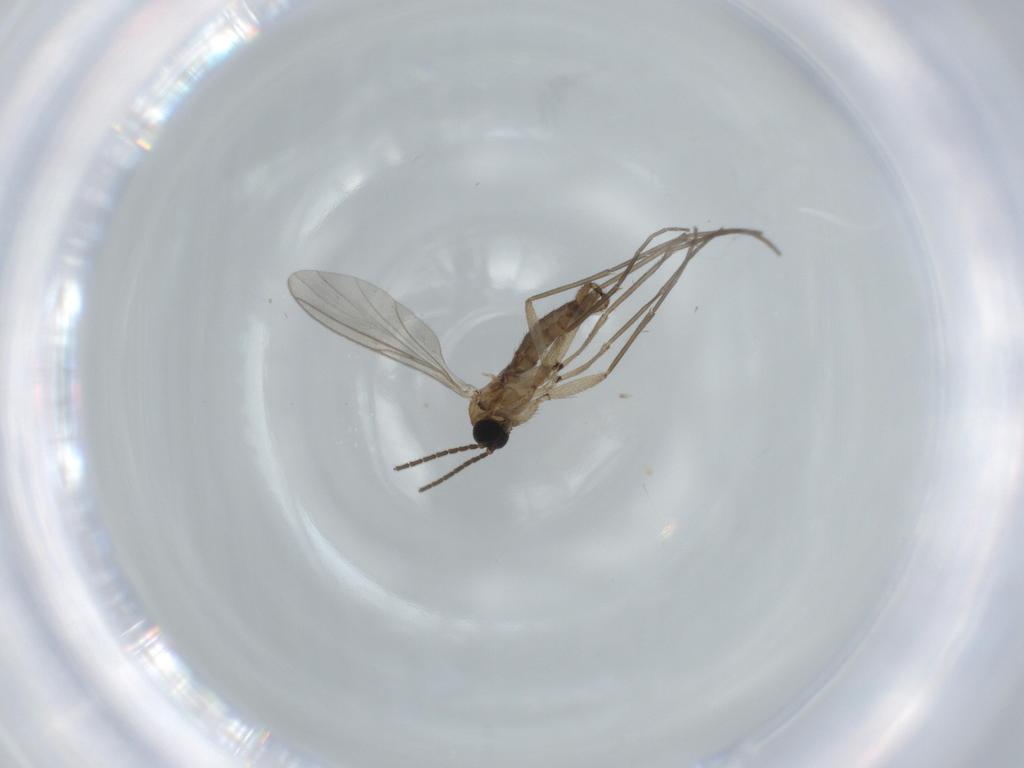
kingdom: Animalia
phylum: Arthropoda
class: Insecta
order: Diptera
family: Sciaridae
